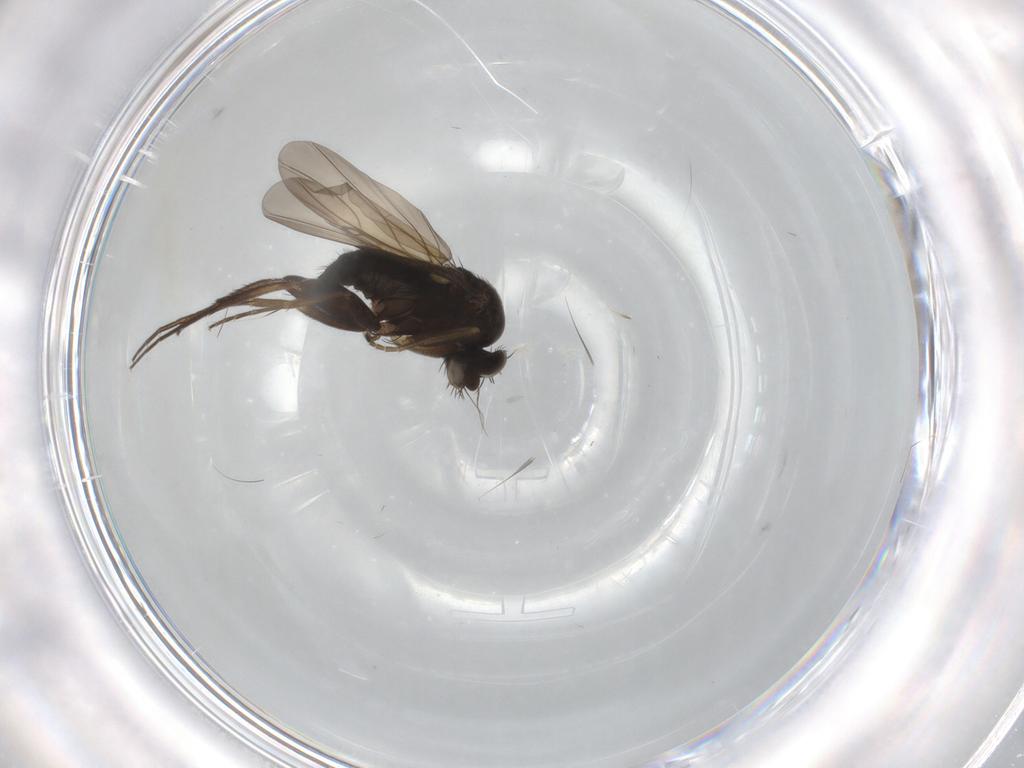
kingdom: Animalia
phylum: Arthropoda
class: Insecta
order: Diptera
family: Phoridae
